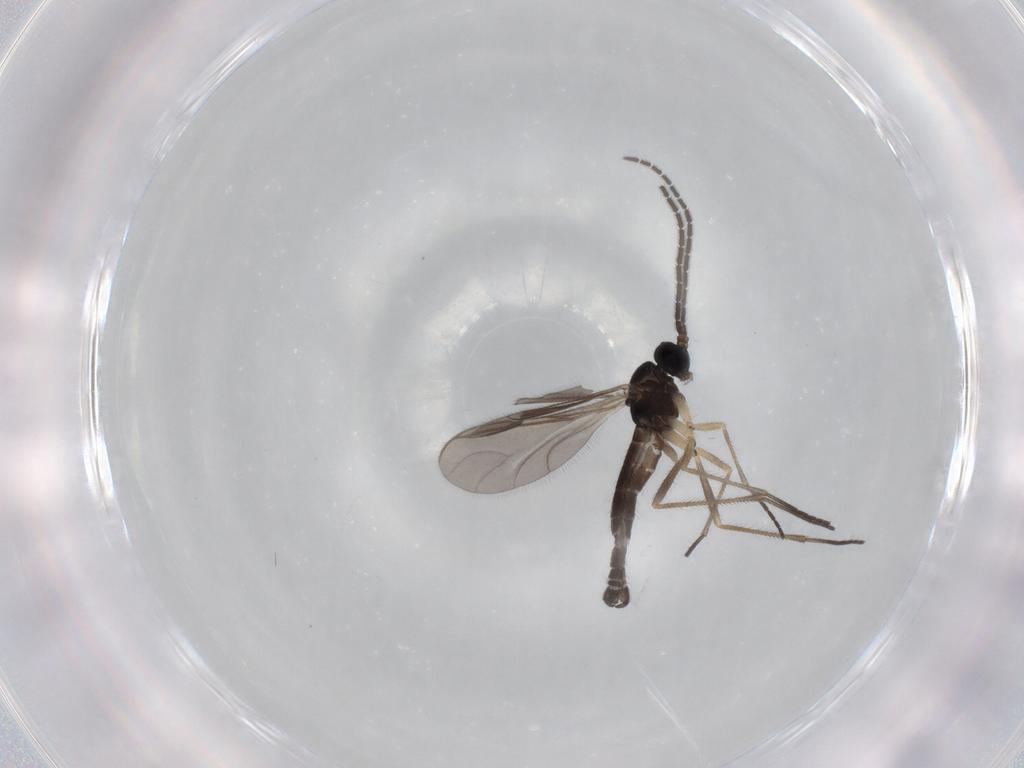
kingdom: Animalia
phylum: Arthropoda
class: Insecta
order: Diptera
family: Sciaridae
